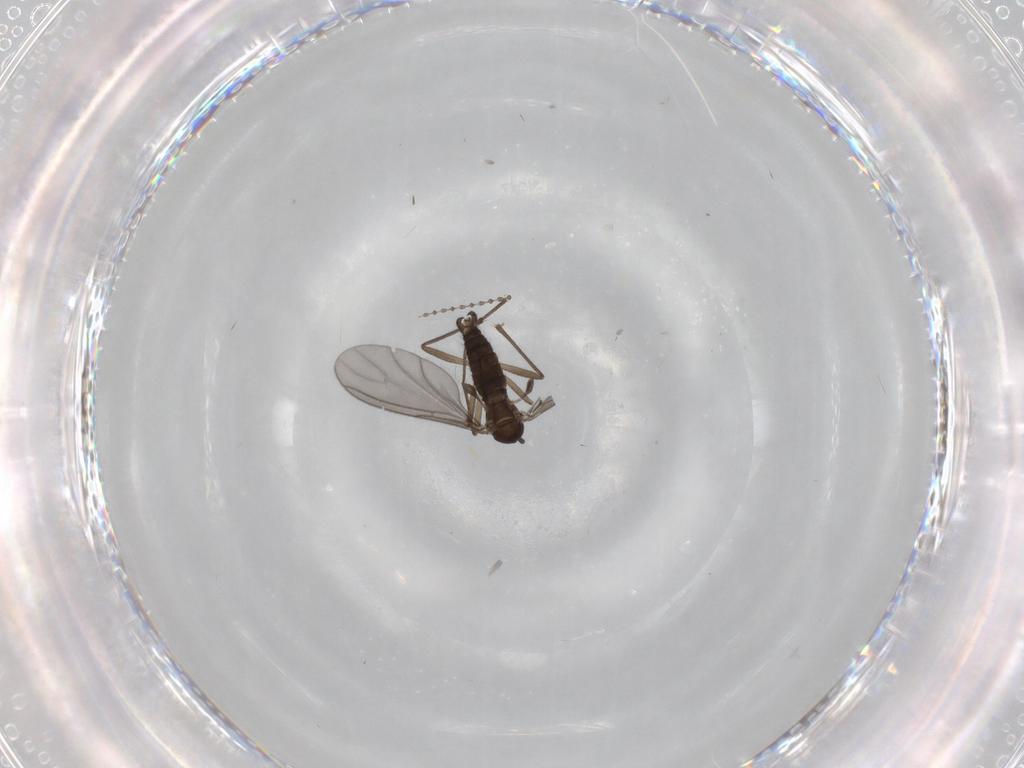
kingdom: Animalia
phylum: Arthropoda
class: Insecta
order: Diptera
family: Sciaridae
